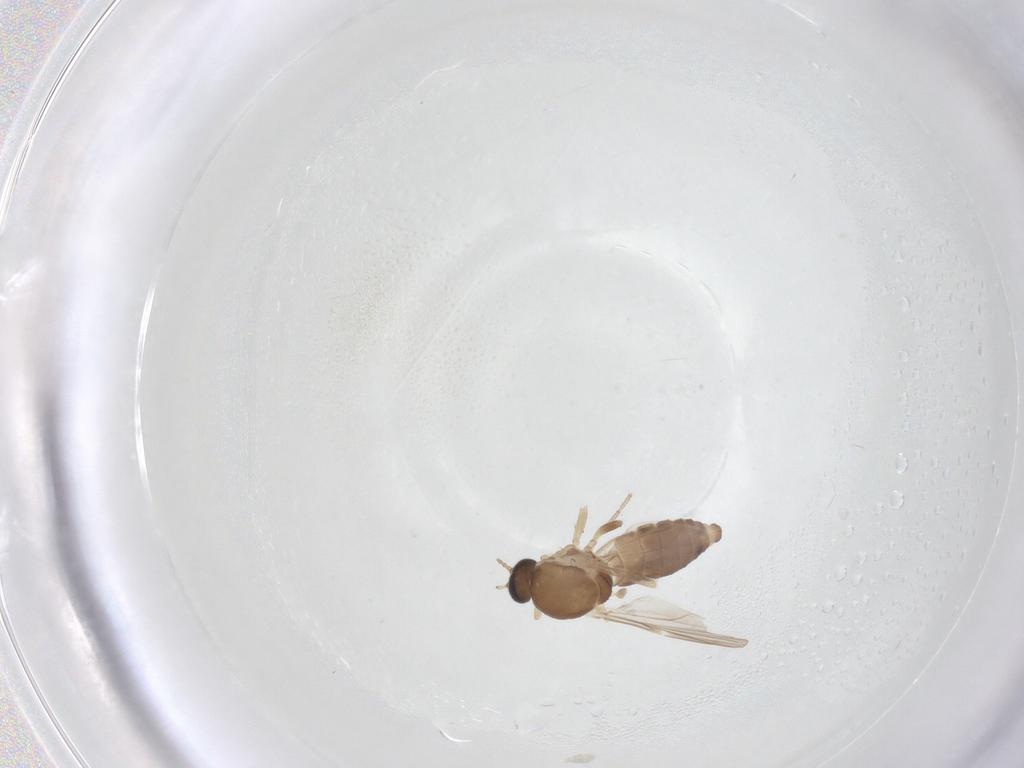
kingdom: Animalia
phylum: Arthropoda
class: Insecta
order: Diptera
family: Ceratopogonidae
